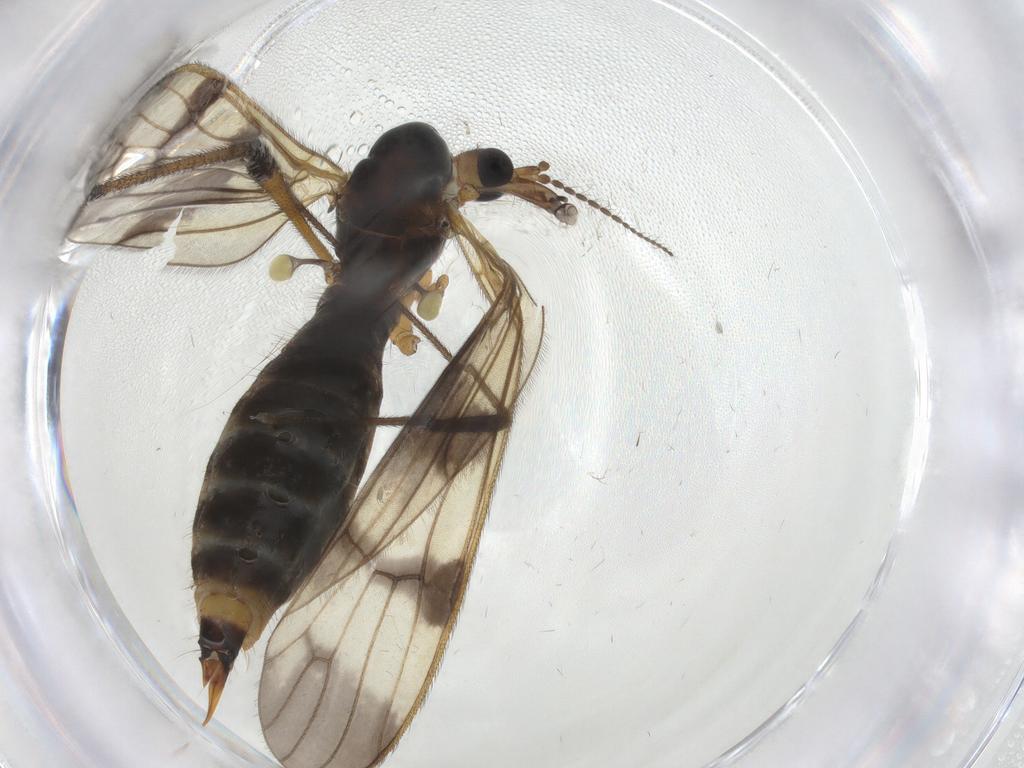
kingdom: Animalia
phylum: Arthropoda
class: Insecta
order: Diptera
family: Limoniidae
